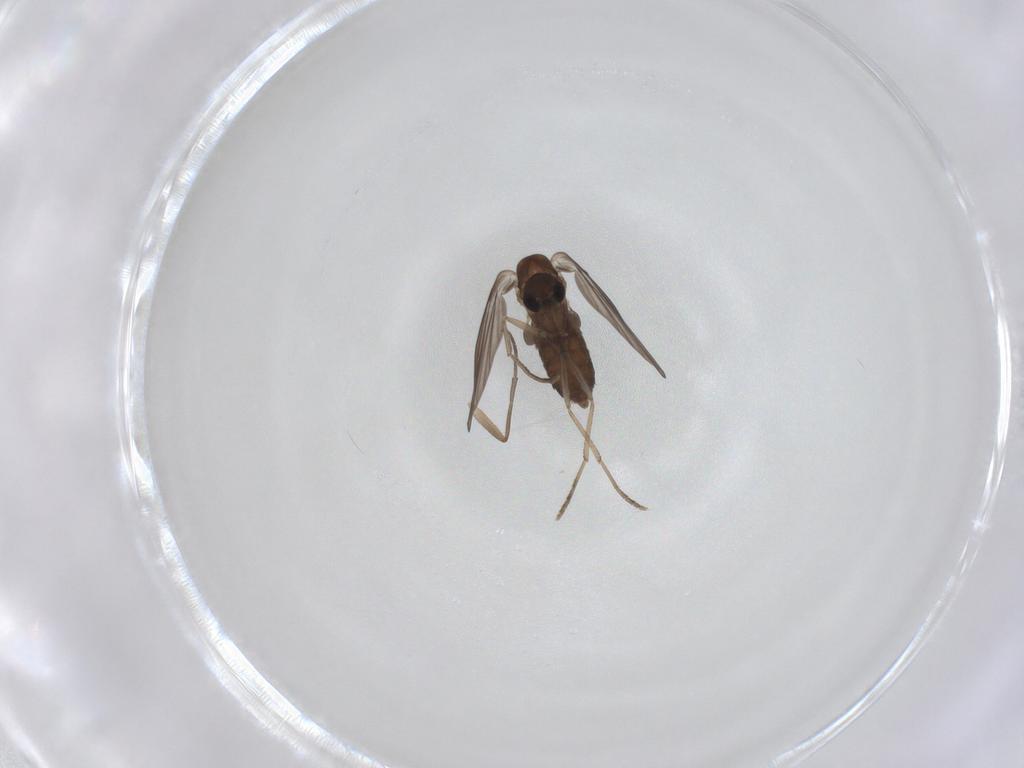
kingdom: Animalia
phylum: Arthropoda
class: Insecta
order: Diptera
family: Psychodidae
